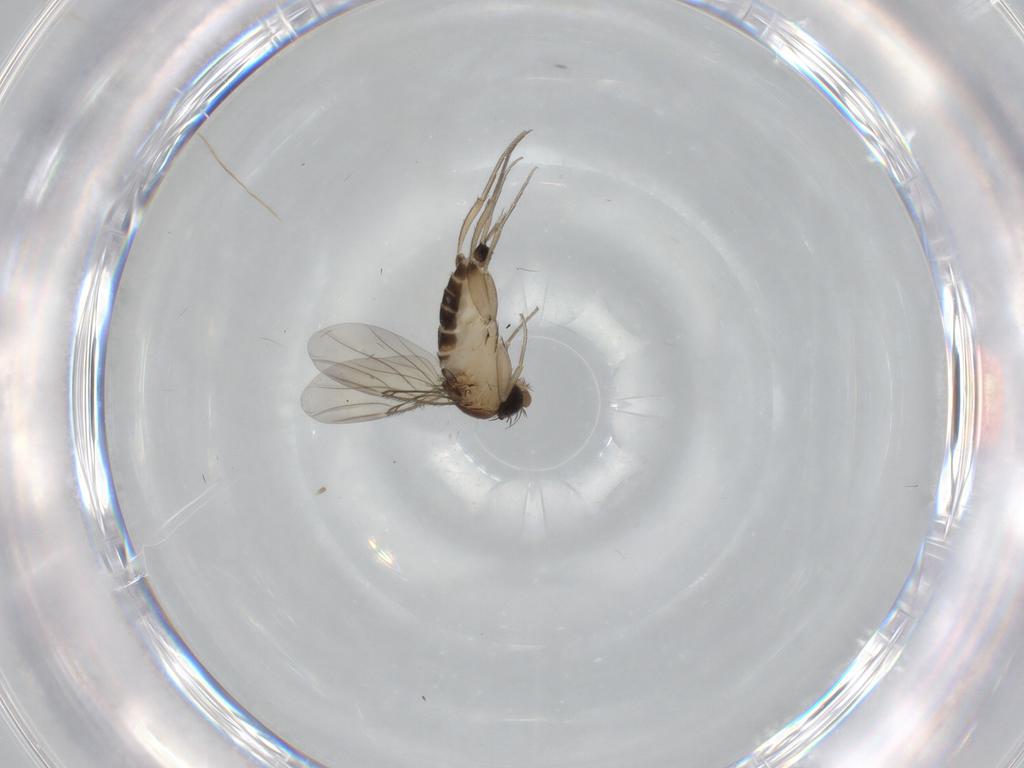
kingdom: Animalia
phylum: Arthropoda
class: Insecta
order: Diptera
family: Phoridae
